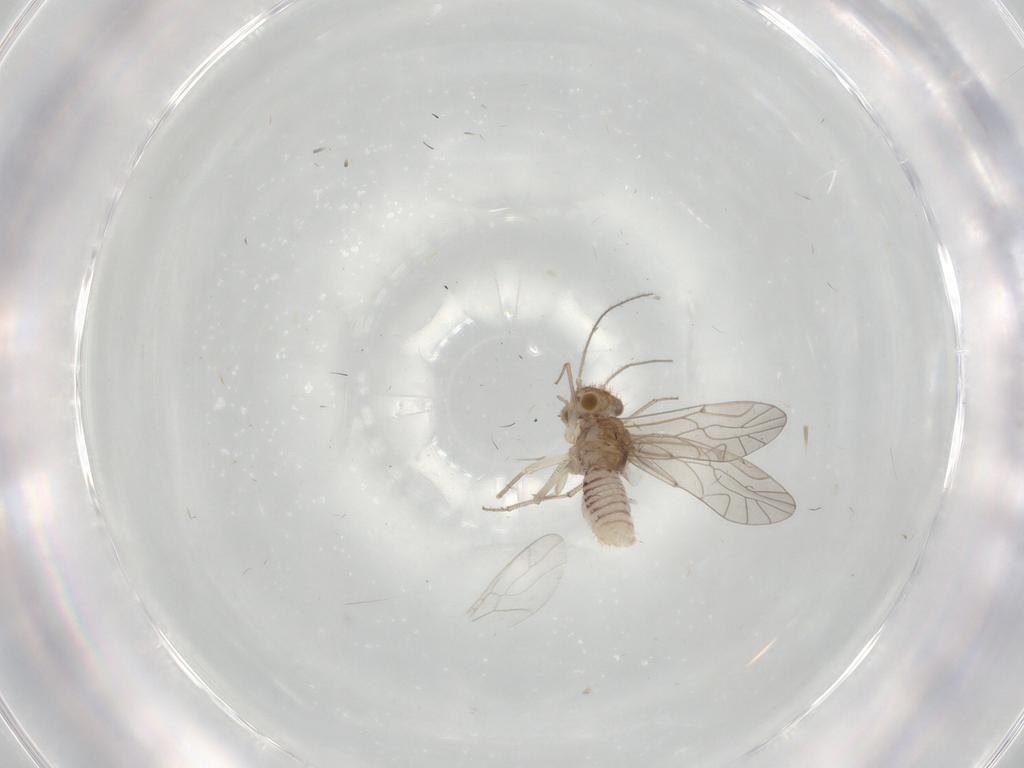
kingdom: Animalia
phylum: Arthropoda
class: Insecta
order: Psocodea
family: Lachesillidae
